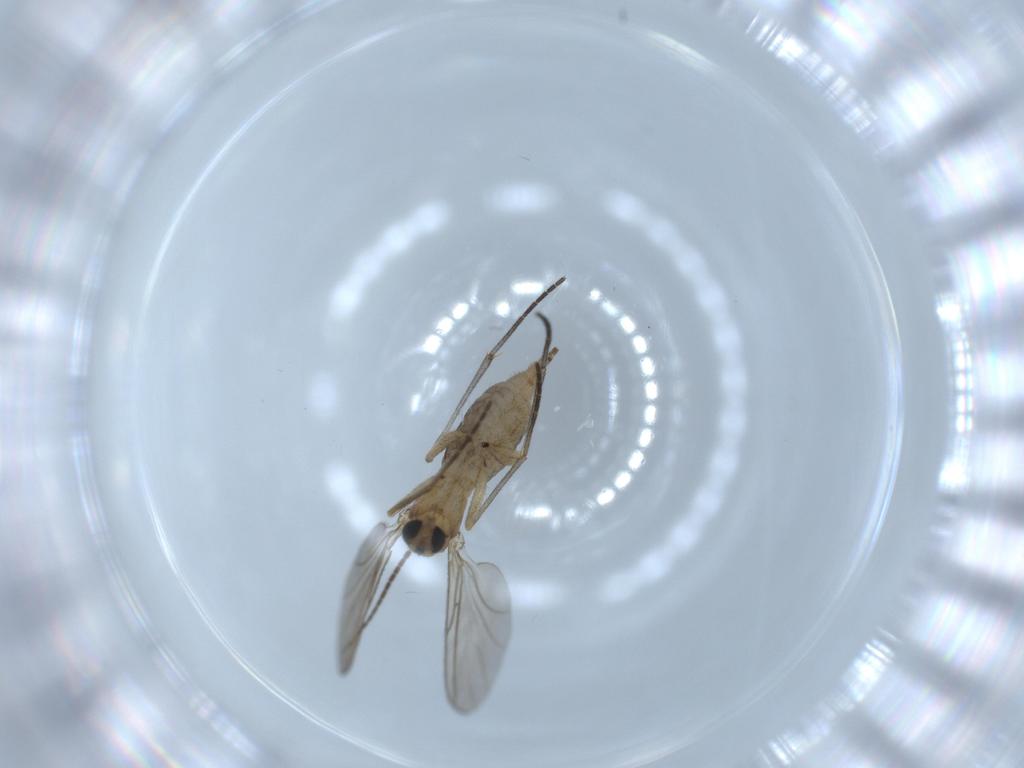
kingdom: Animalia
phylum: Arthropoda
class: Insecta
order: Diptera
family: Sciaridae
